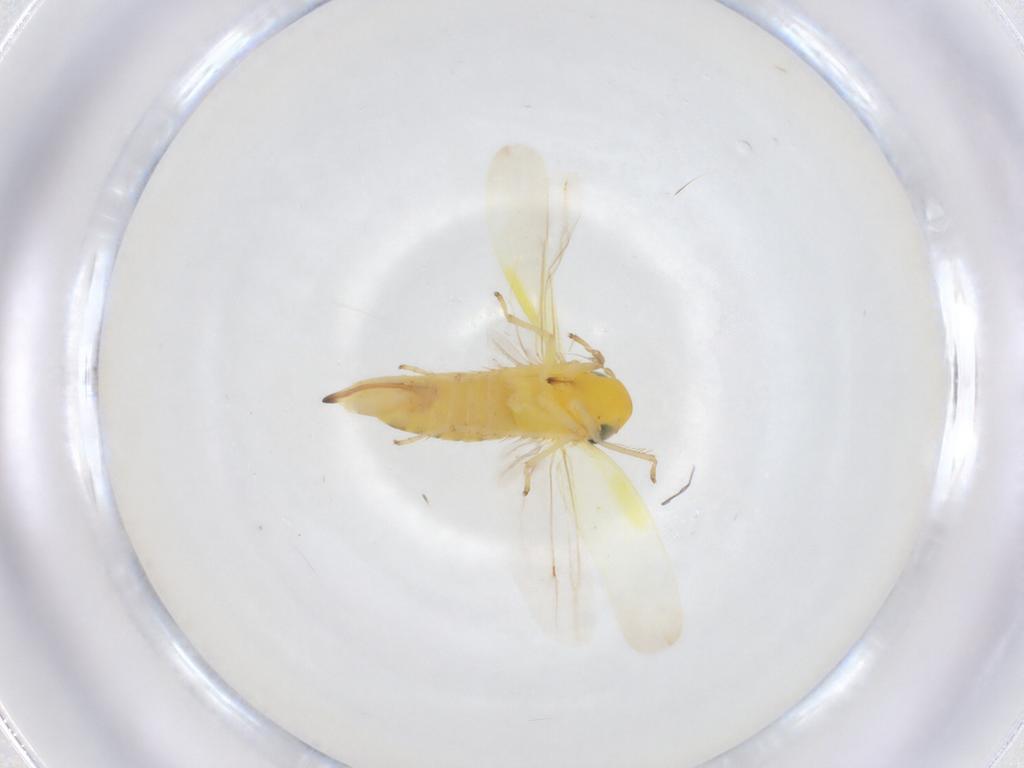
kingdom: Animalia
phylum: Arthropoda
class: Insecta
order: Hemiptera
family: Cicadellidae
